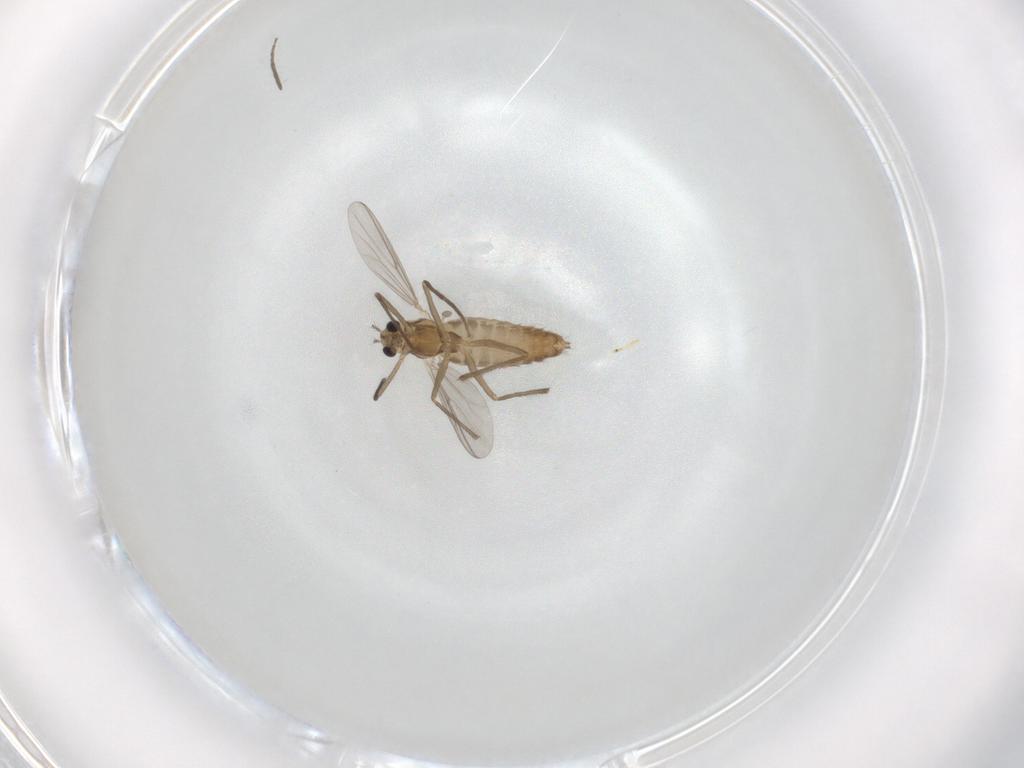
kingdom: Animalia
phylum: Arthropoda
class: Insecta
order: Diptera
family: Chironomidae
